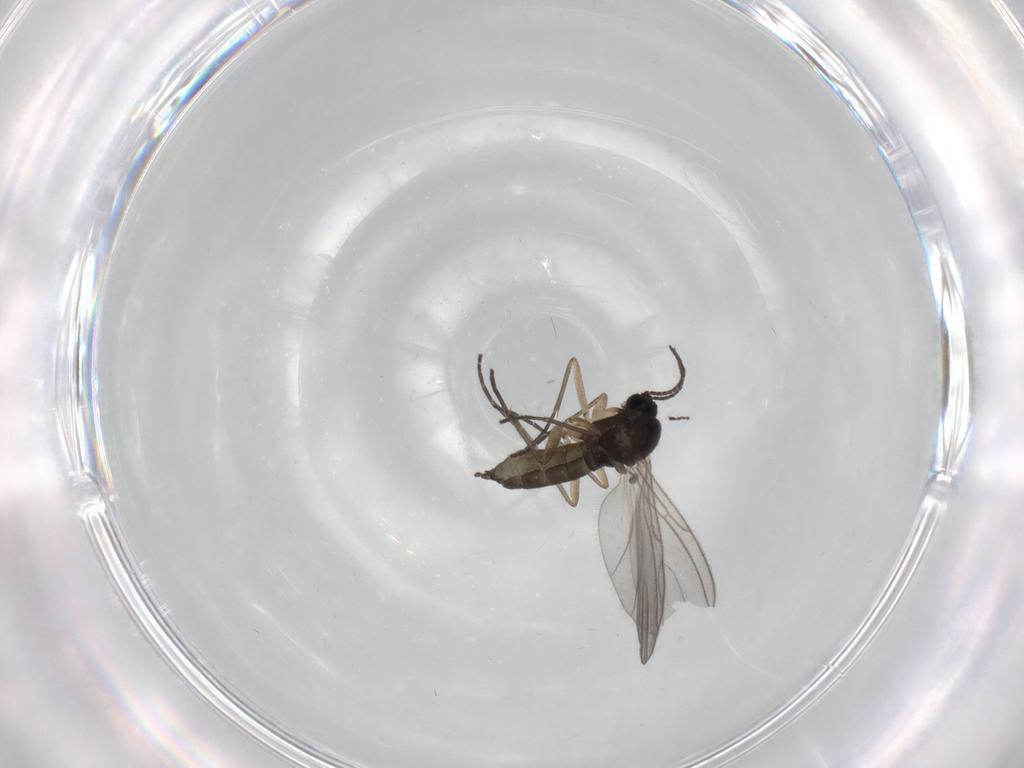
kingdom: Animalia
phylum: Arthropoda
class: Insecta
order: Diptera
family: Sciaridae
